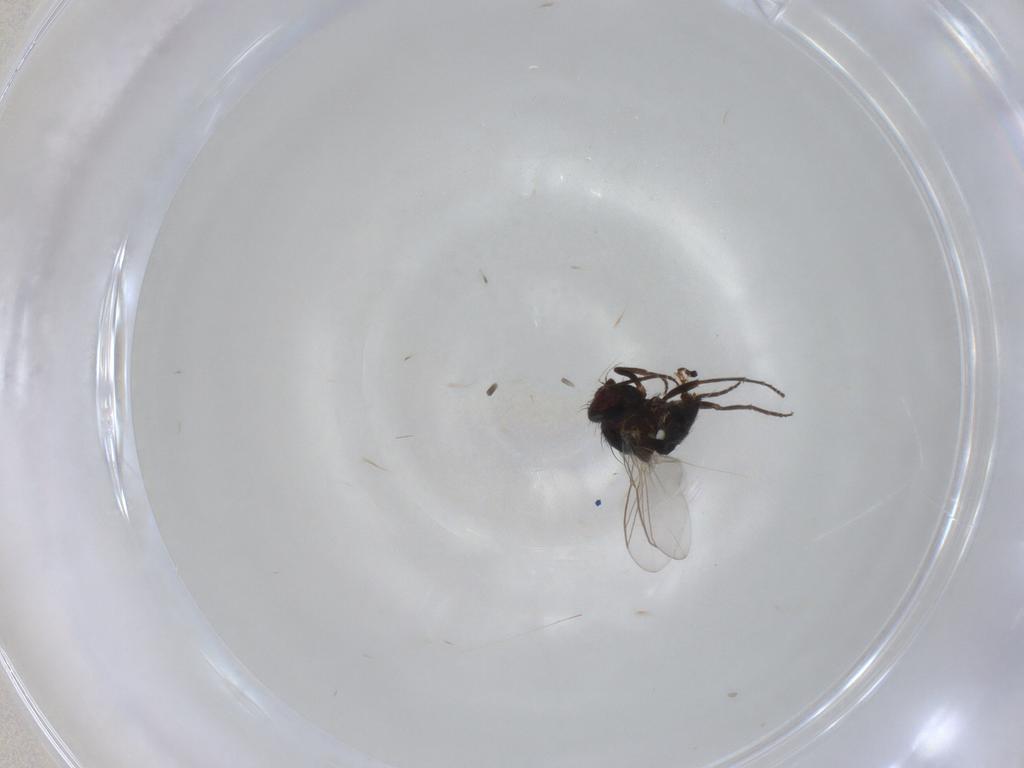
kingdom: Animalia
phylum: Arthropoda
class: Insecta
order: Diptera
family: Agromyzidae
